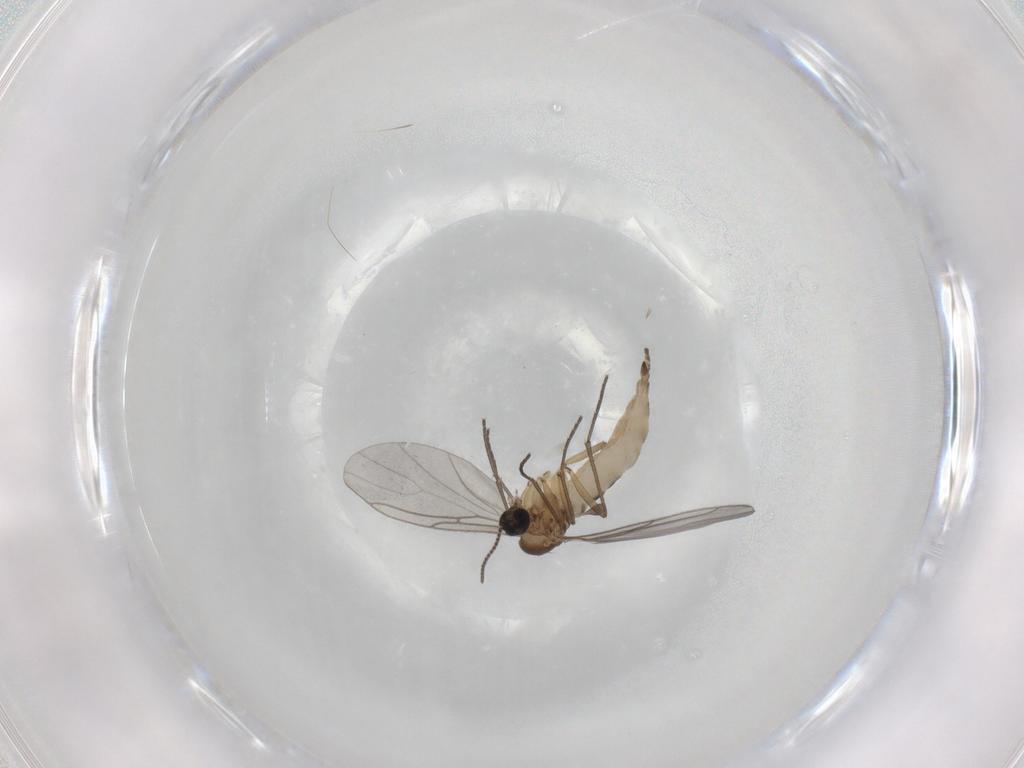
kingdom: Animalia
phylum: Arthropoda
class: Insecta
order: Diptera
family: Sciaridae
